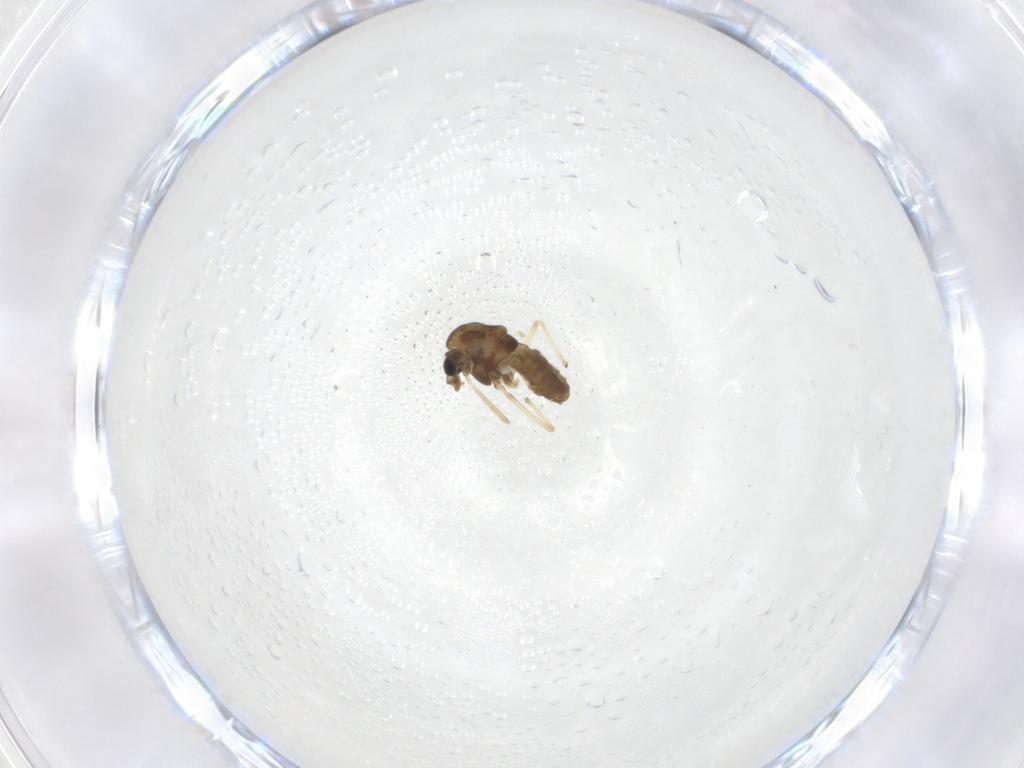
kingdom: Animalia
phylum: Arthropoda
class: Insecta
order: Diptera
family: Chironomidae
